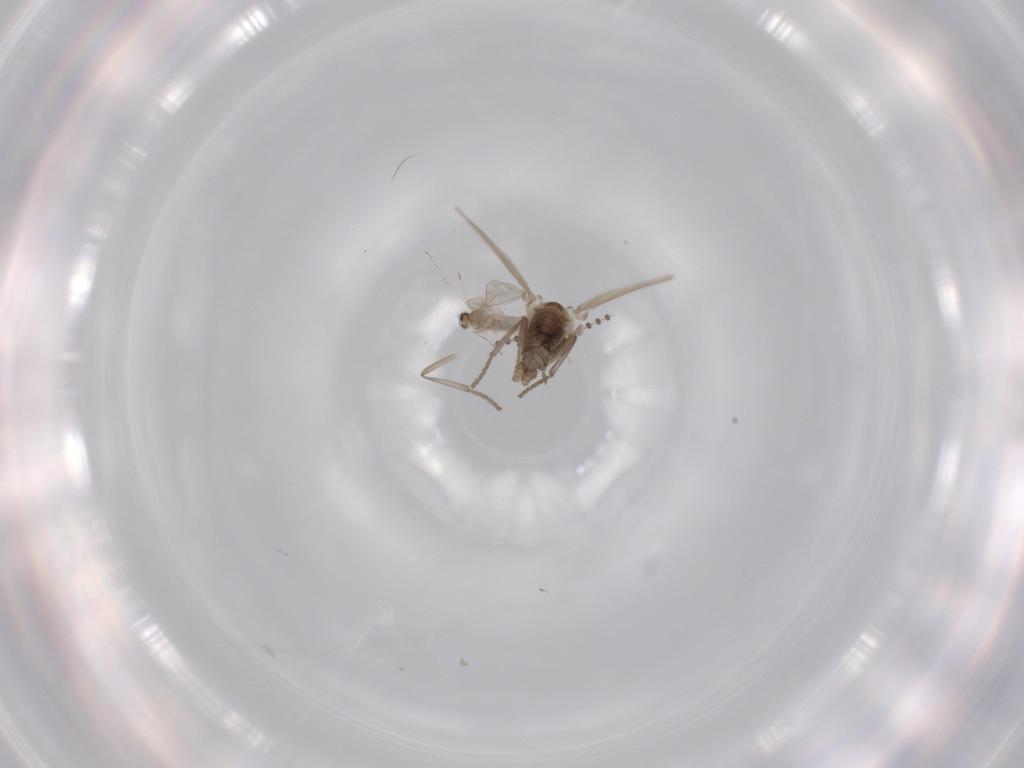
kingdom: Animalia
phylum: Arthropoda
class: Insecta
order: Diptera
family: Psychodidae
